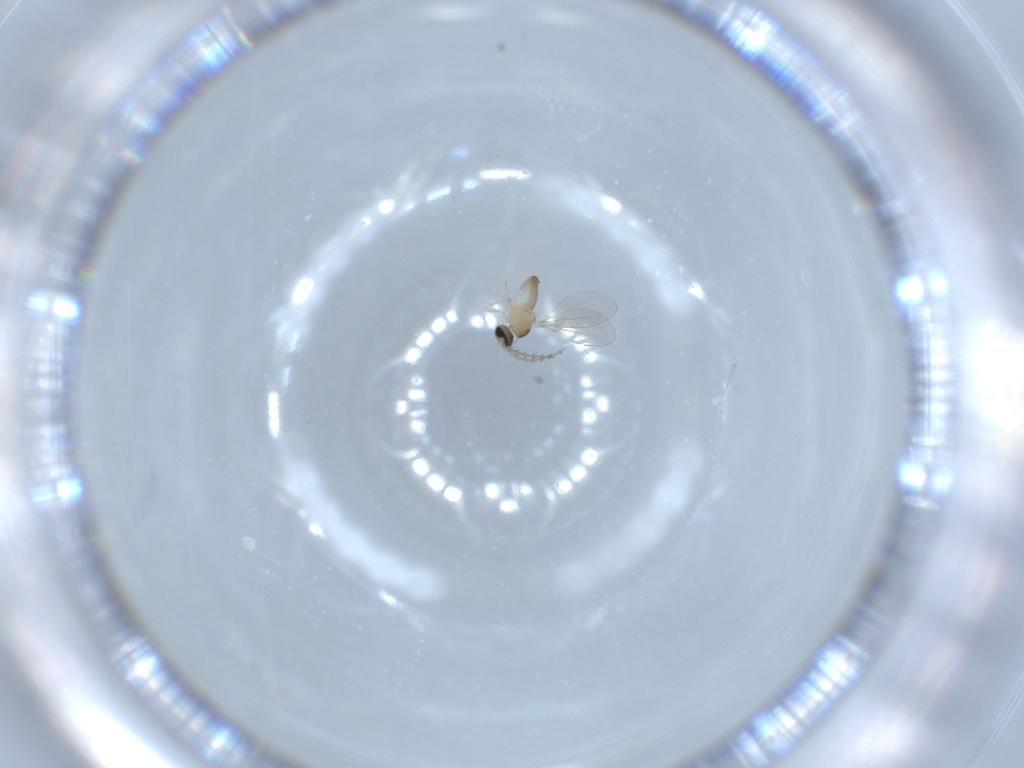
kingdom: Animalia
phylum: Arthropoda
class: Insecta
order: Diptera
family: Cecidomyiidae
